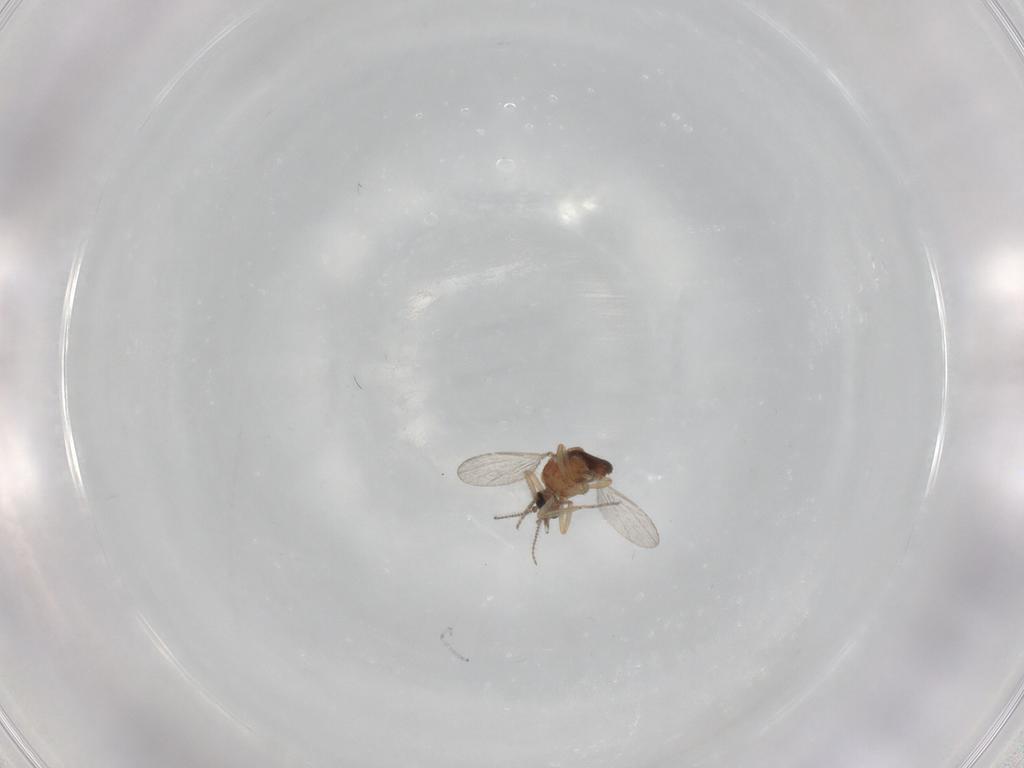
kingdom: Animalia
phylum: Arthropoda
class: Insecta
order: Diptera
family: Ceratopogonidae
